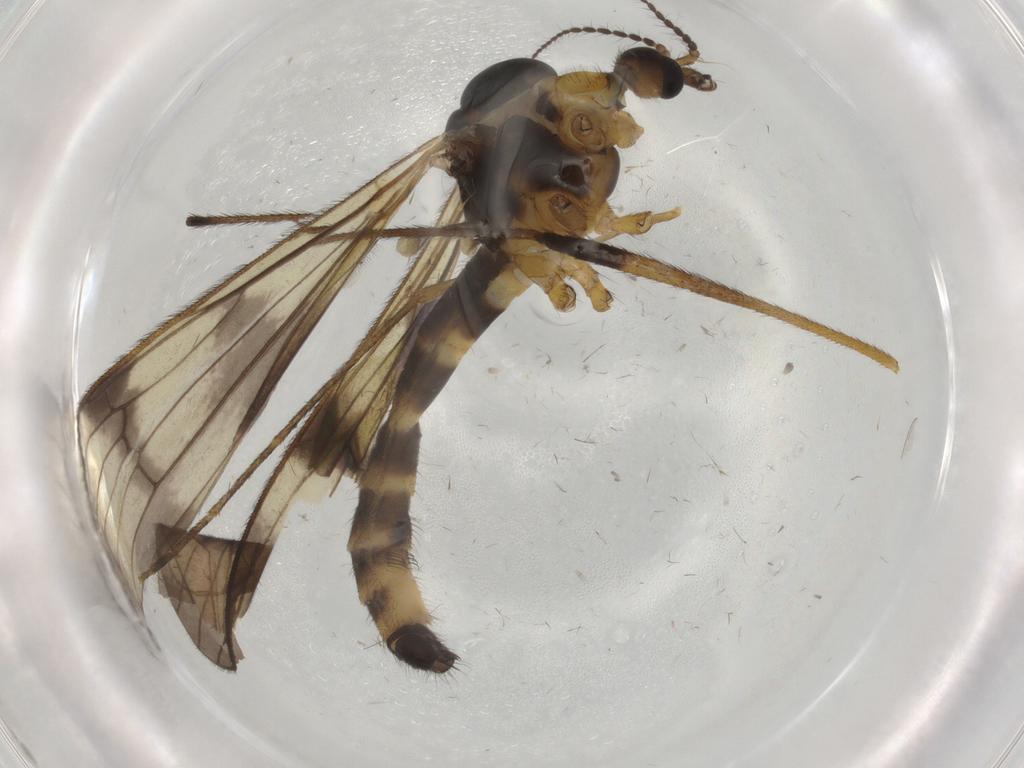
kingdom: Animalia
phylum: Arthropoda
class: Insecta
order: Diptera
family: Limoniidae
